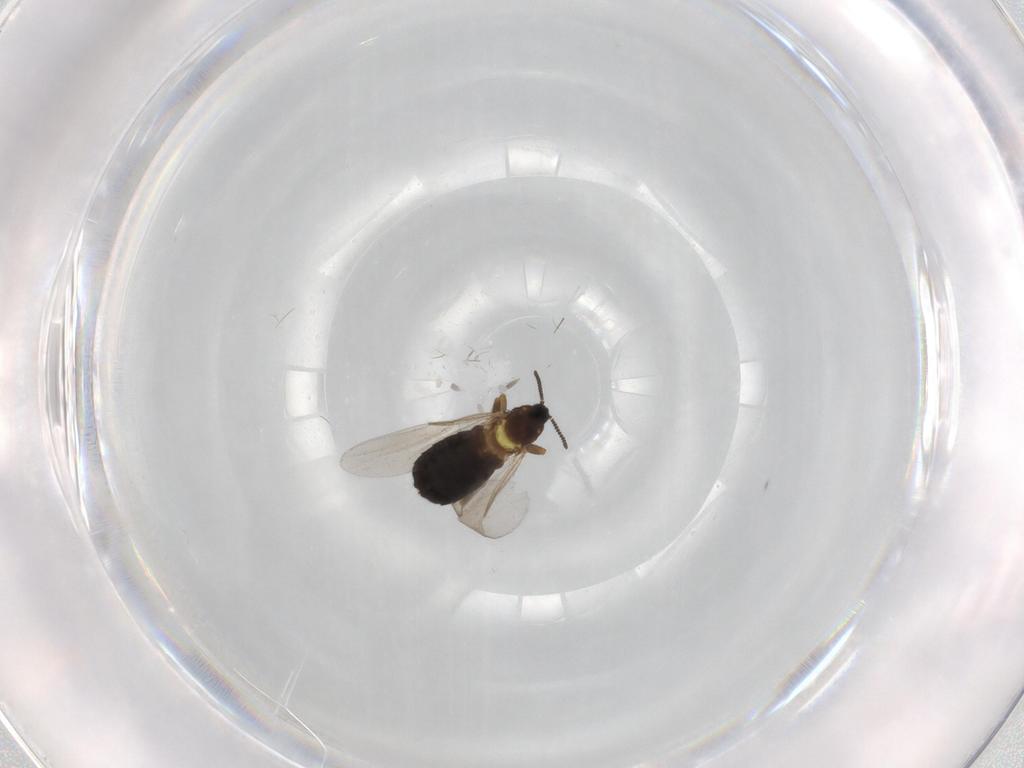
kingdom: Animalia
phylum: Arthropoda
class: Insecta
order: Diptera
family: Scatopsidae
